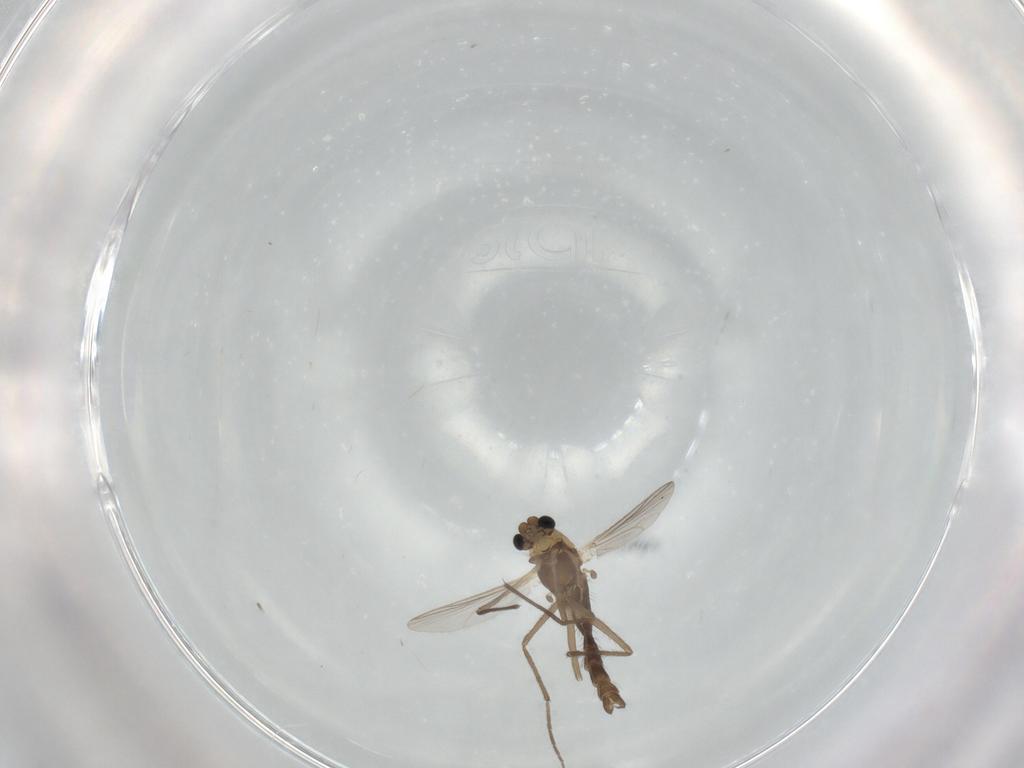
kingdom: Animalia
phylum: Arthropoda
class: Insecta
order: Diptera
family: Chironomidae
